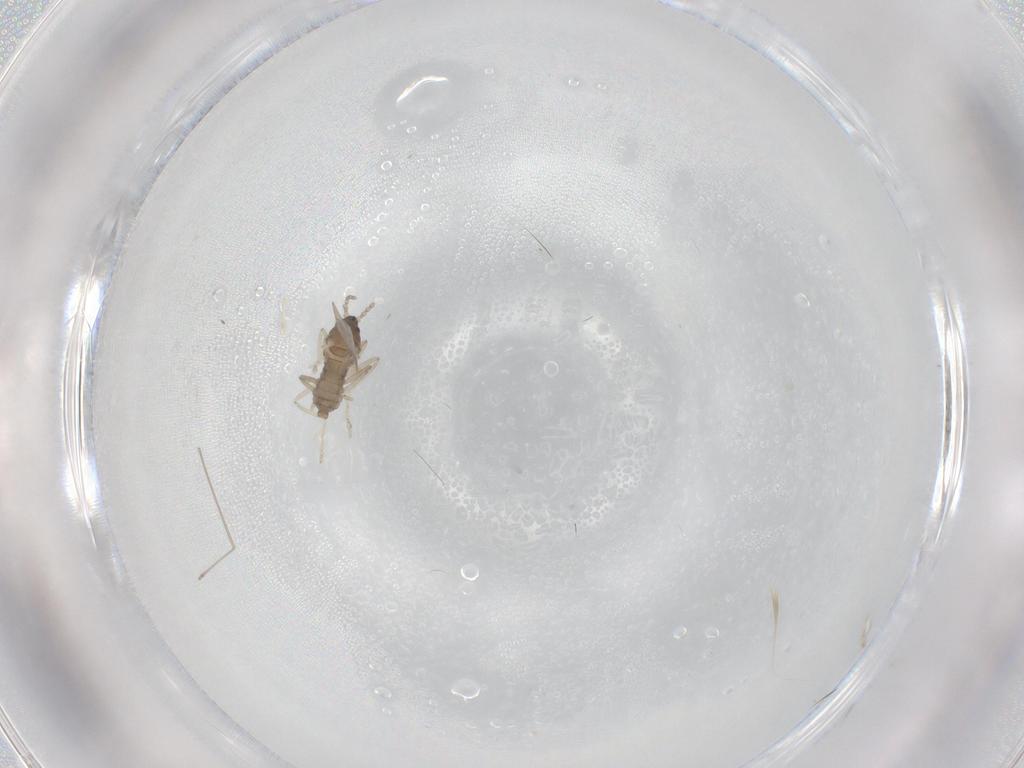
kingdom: Animalia
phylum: Arthropoda
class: Insecta
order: Diptera
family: Cecidomyiidae
